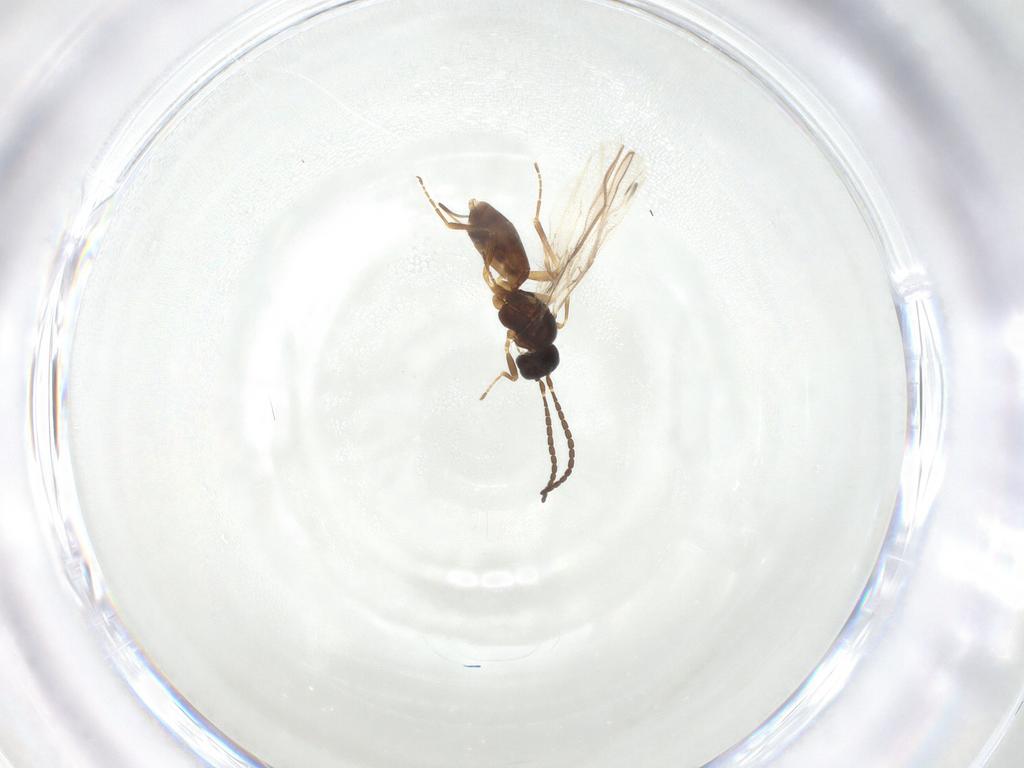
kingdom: Animalia
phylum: Arthropoda
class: Insecta
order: Hymenoptera
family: Braconidae
